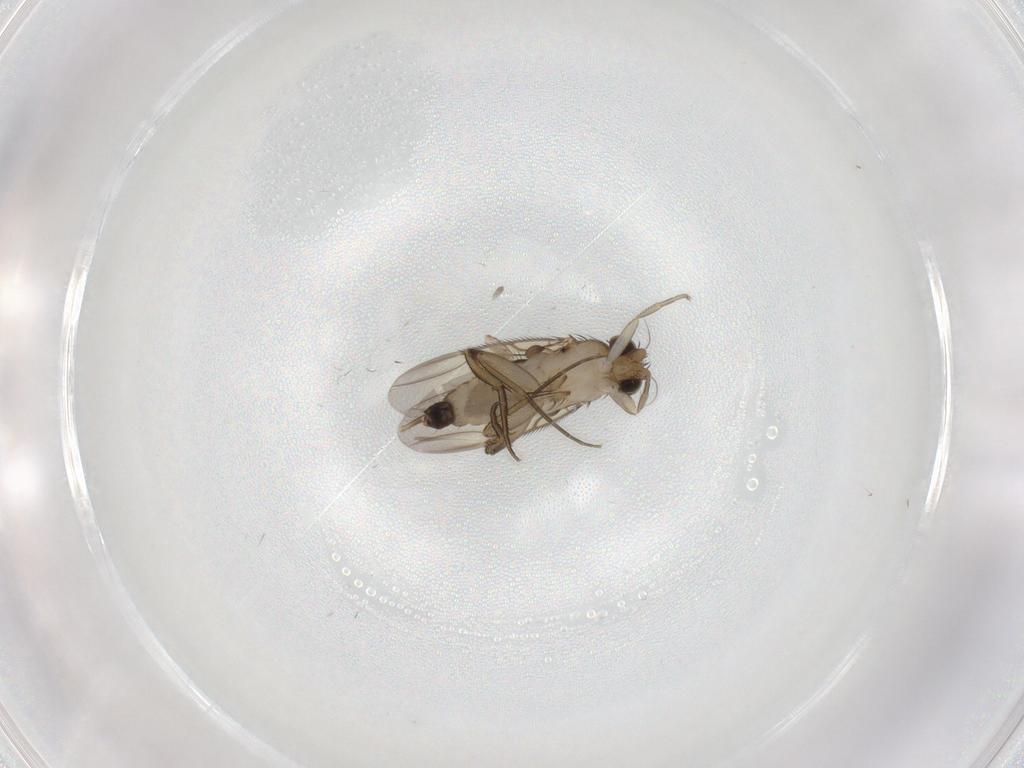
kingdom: Animalia
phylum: Arthropoda
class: Insecta
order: Diptera
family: Phoridae
